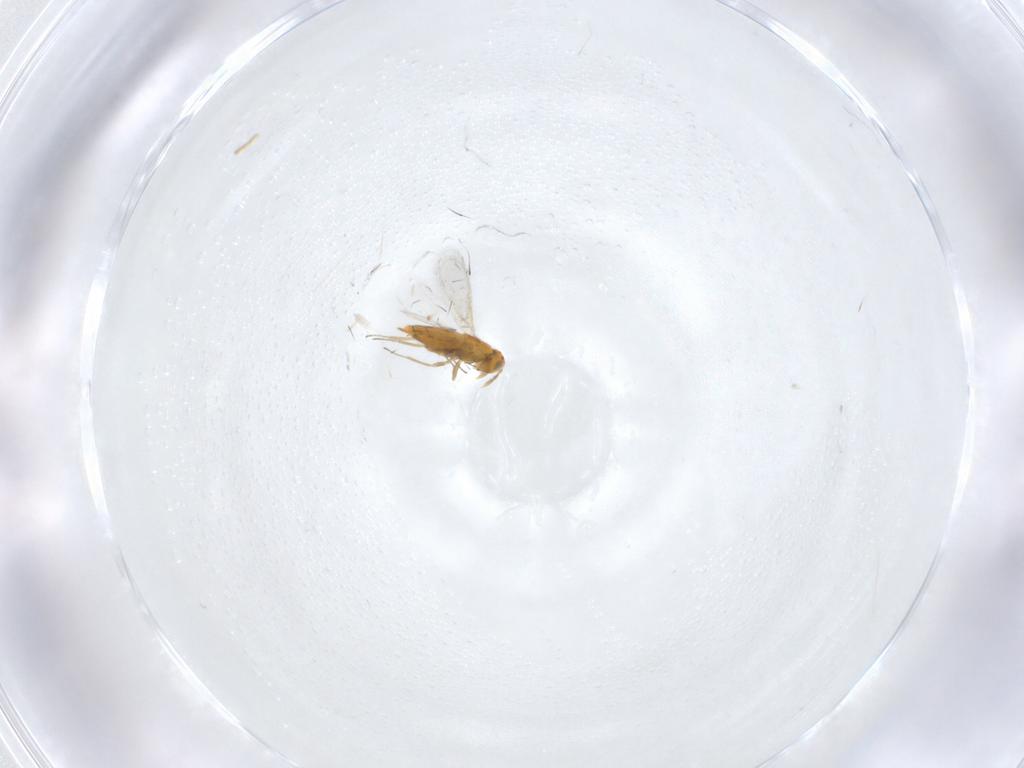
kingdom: Animalia
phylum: Arthropoda
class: Insecta
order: Hymenoptera
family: Aphelinidae
